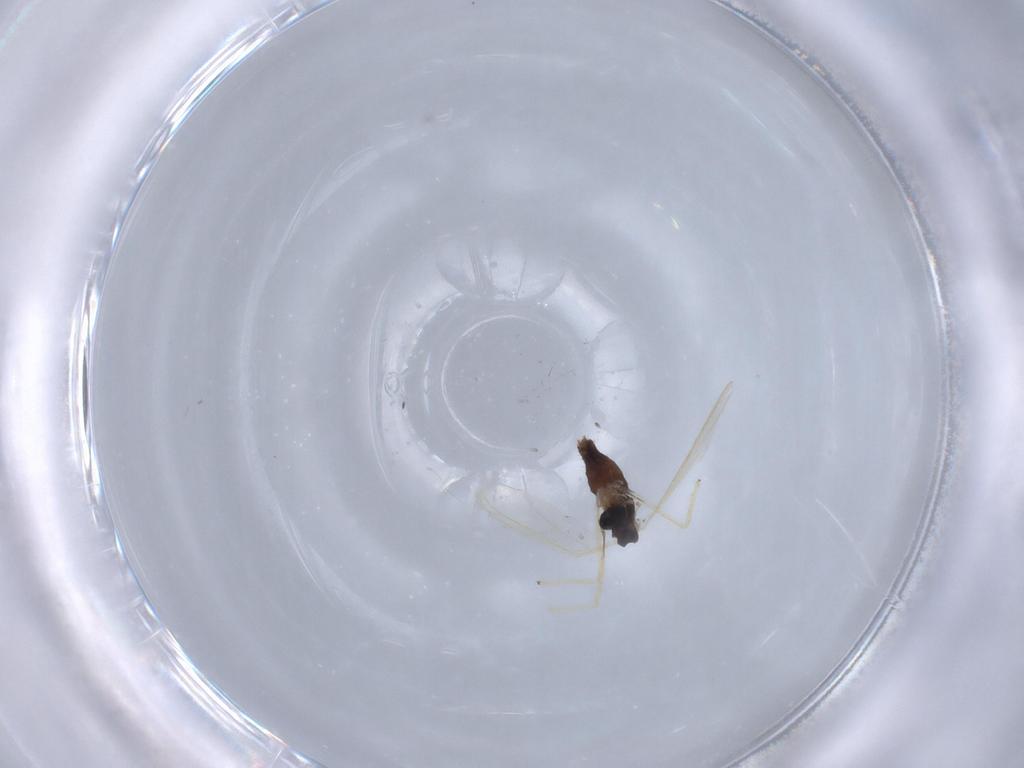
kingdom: Animalia
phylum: Arthropoda
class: Insecta
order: Diptera
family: Chironomidae
